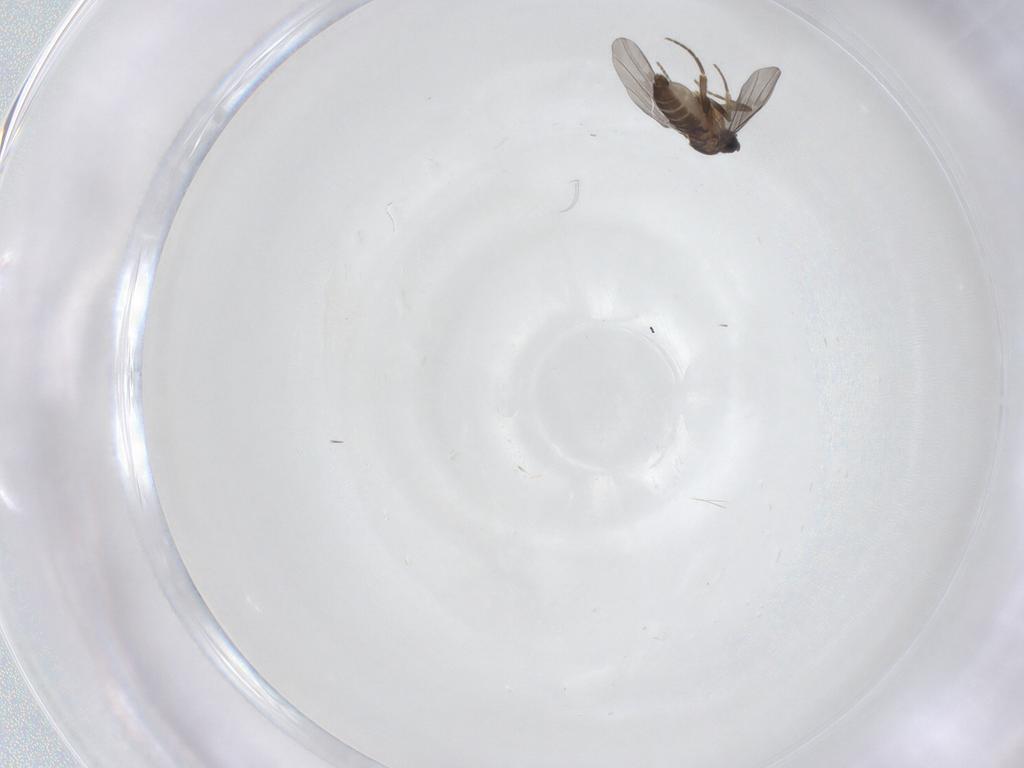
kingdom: Animalia
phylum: Arthropoda
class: Insecta
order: Diptera
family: Phoridae
